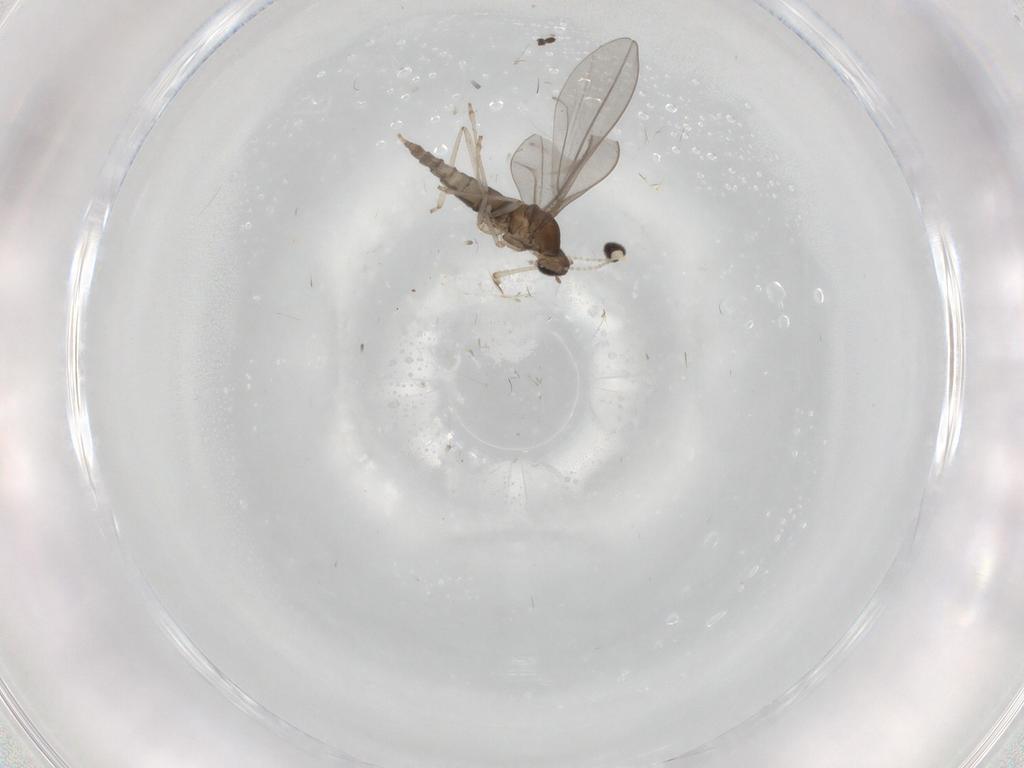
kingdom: Animalia
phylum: Arthropoda
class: Insecta
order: Diptera
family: Cecidomyiidae
